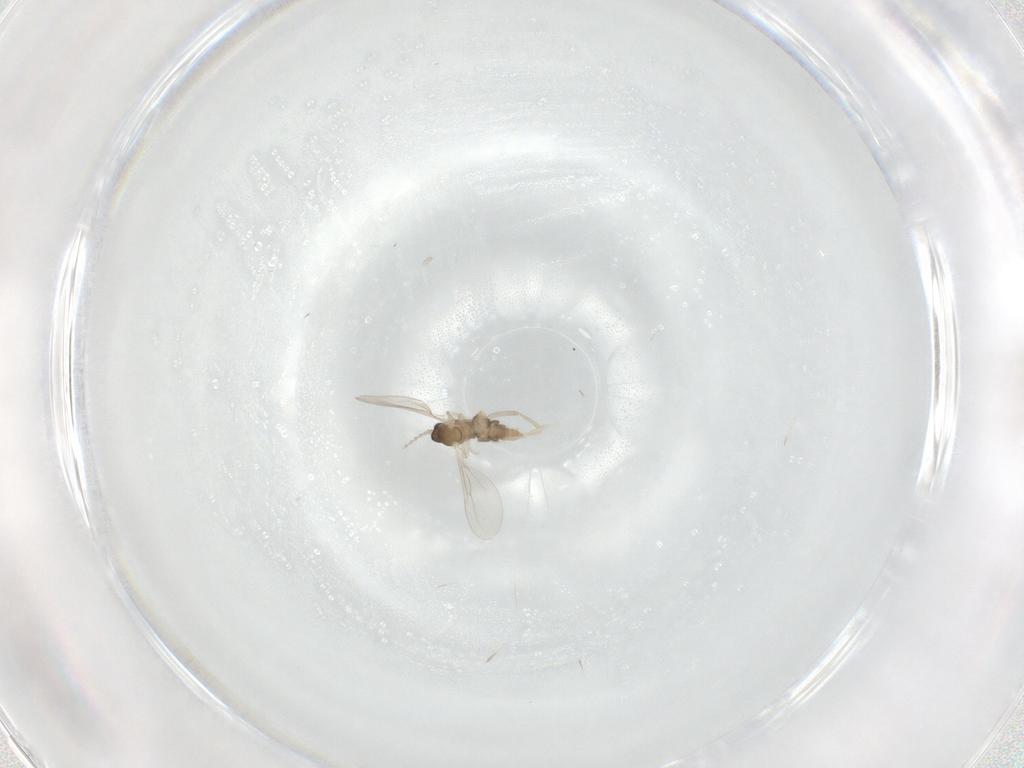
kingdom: Animalia
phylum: Arthropoda
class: Insecta
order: Diptera
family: Cecidomyiidae
